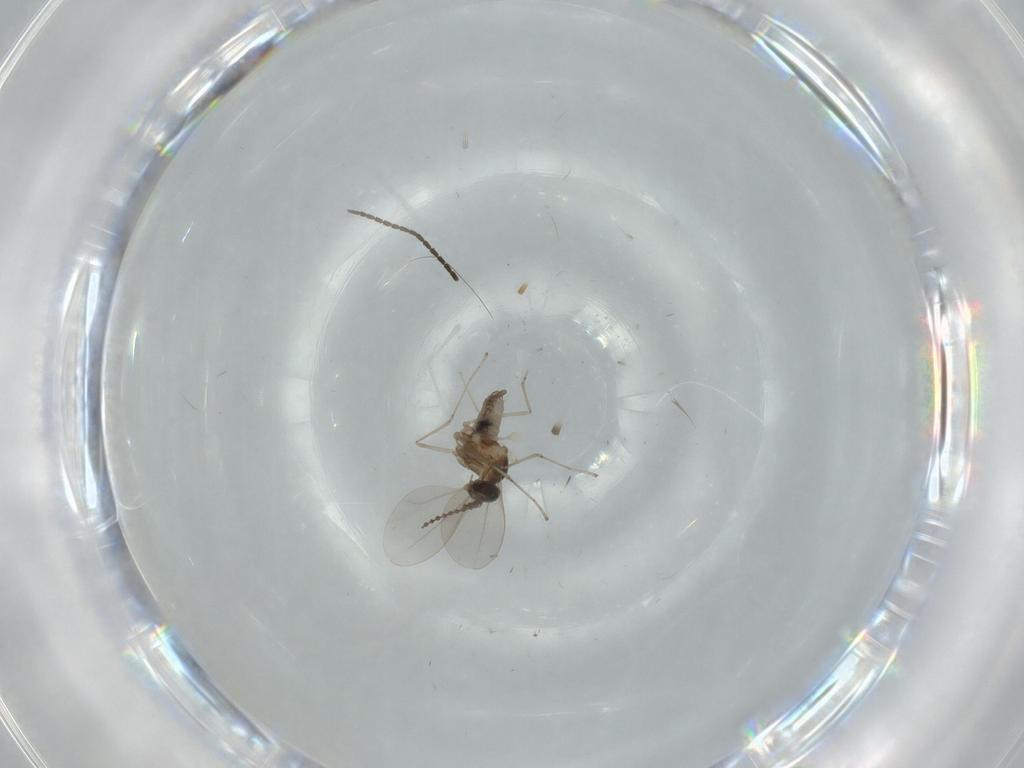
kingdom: Animalia
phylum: Arthropoda
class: Insecta
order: Diptera
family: Cecidomyiidae
